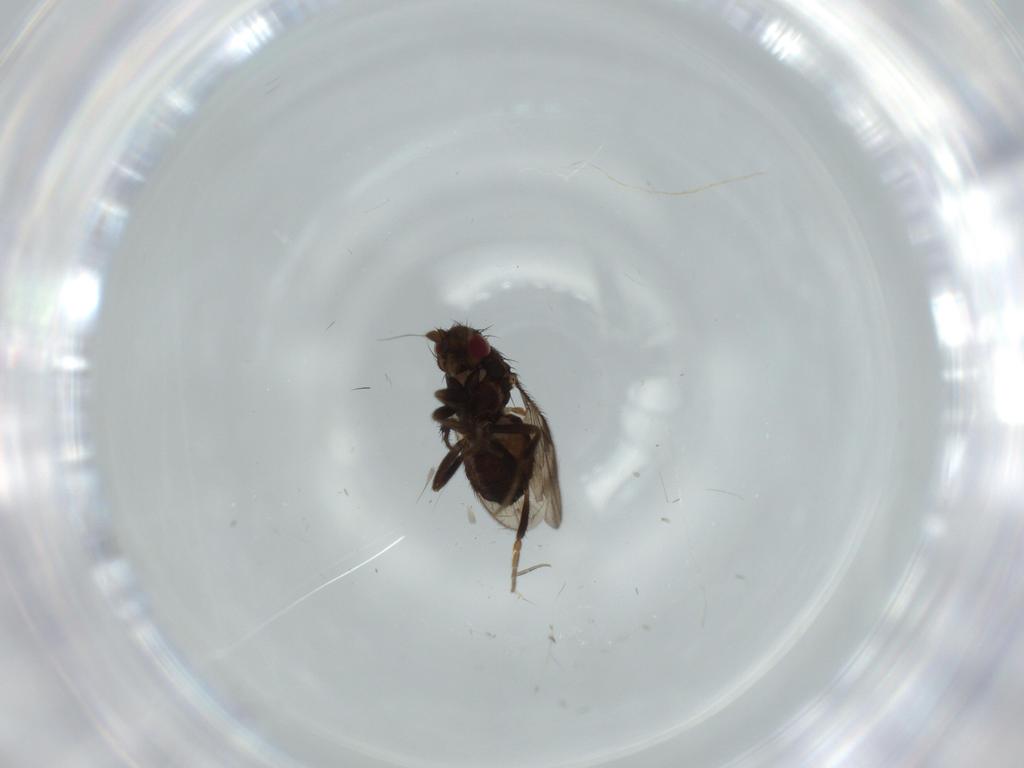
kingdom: Animalia
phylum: Arthropoda
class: Insecta
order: Diptera
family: Sphaeroceridae
